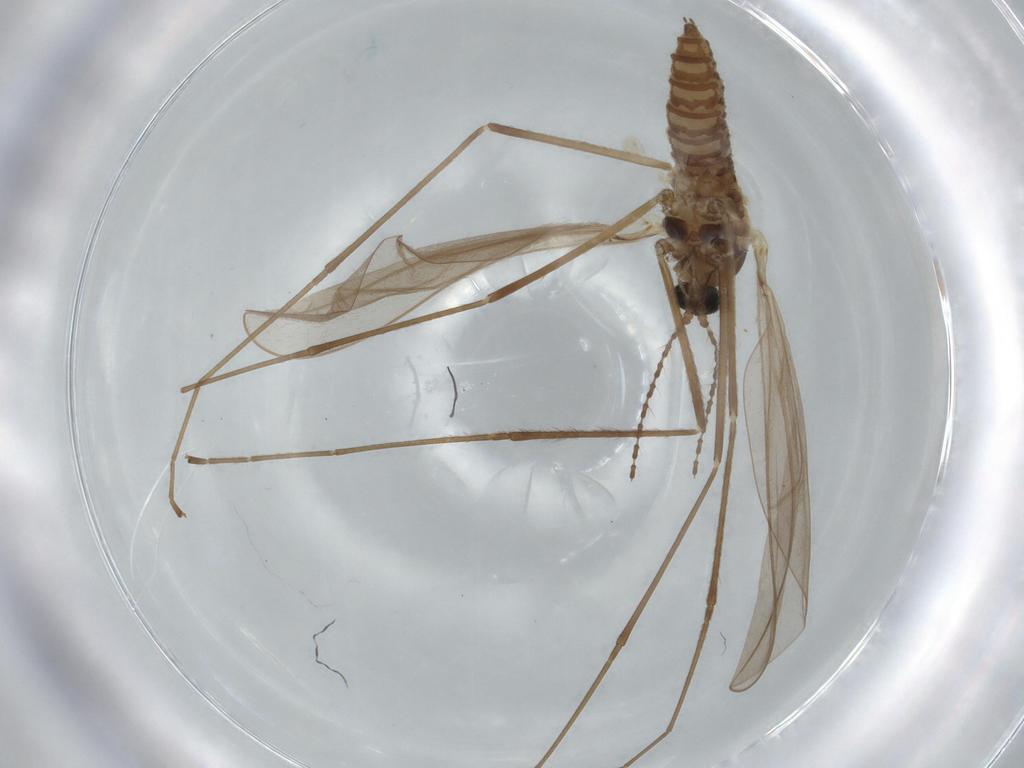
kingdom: Animalia
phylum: Arthropoda
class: Insecta
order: Diptera
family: Cecidomyiidae
